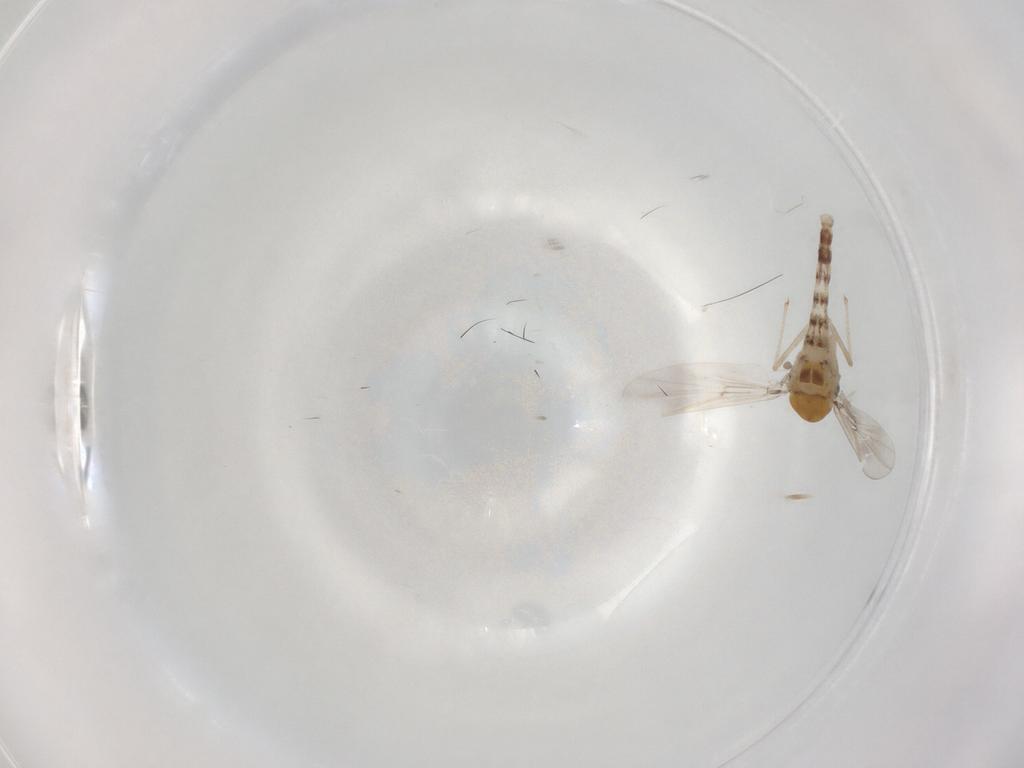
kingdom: Animalia
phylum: Arthropoda
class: Insecta
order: Diptera
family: Chironomidae
